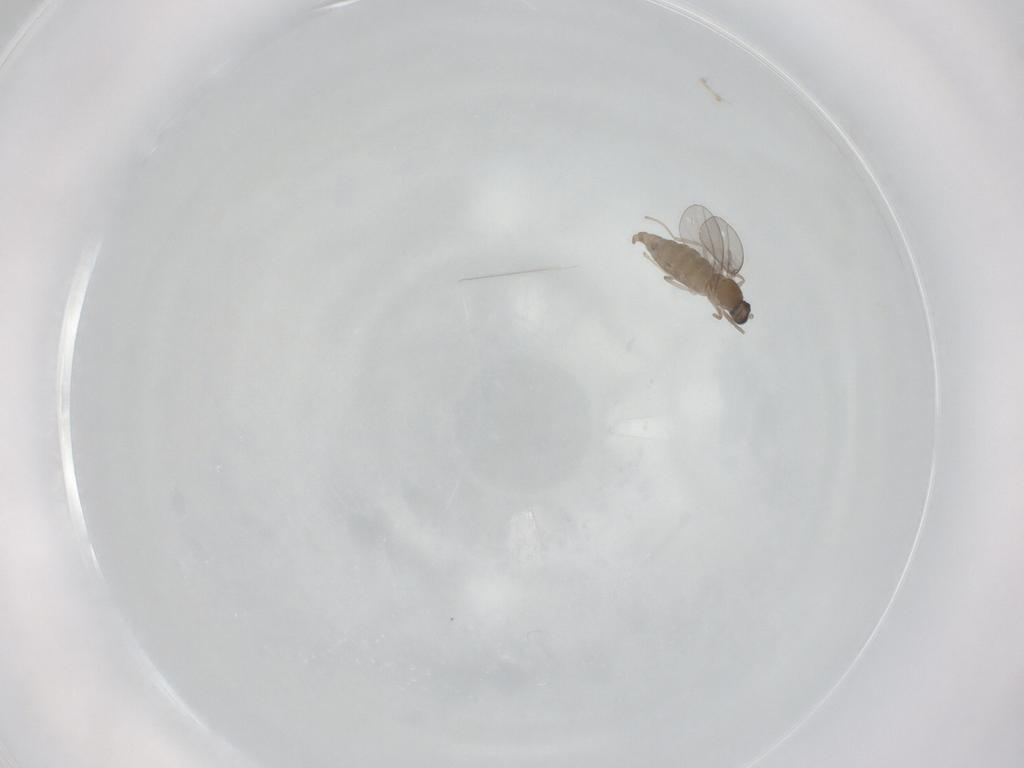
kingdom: Animalia
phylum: Arthropoda
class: Insecta
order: Diptera
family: Cecidomyiidae
